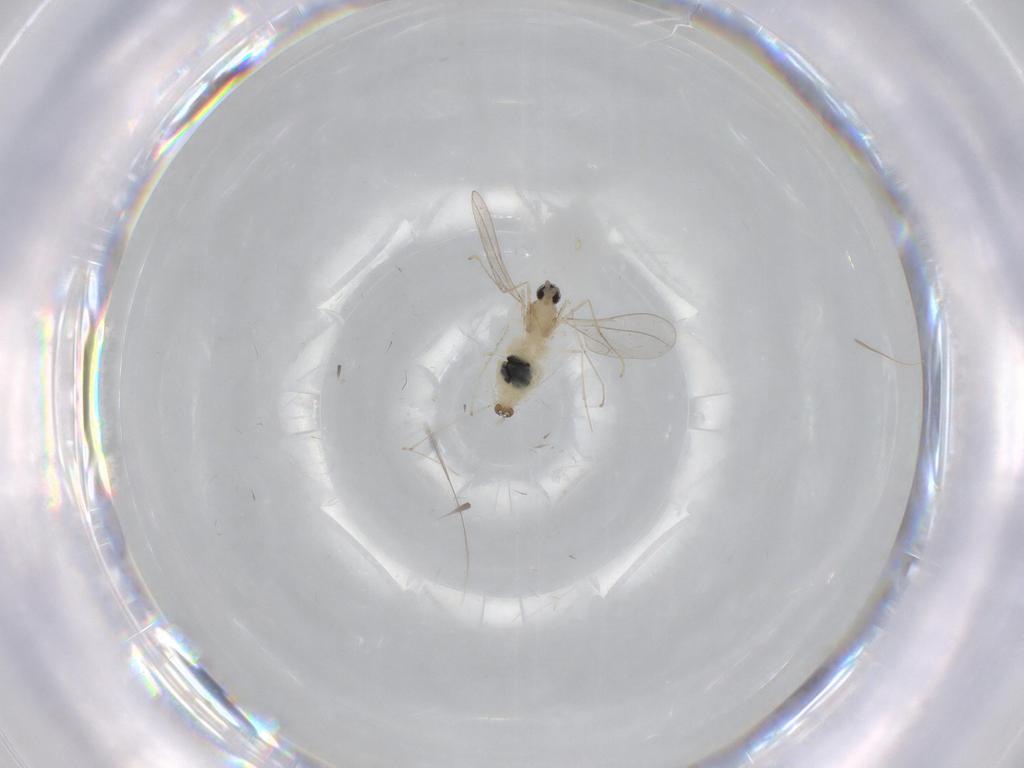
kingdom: Animalia
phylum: Arthropoda
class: Insecta
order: Diptera
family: Cecidomyiidae
